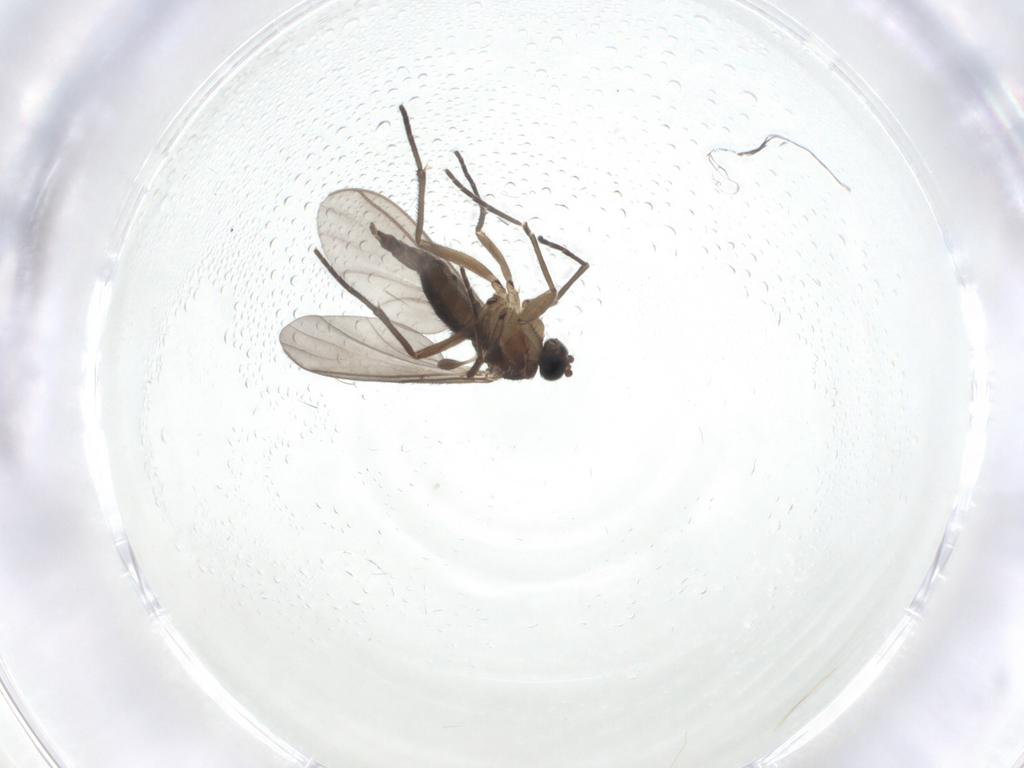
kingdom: Animalia
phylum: Arthropoda
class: Insecta
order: Diptera
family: Sciaridae
